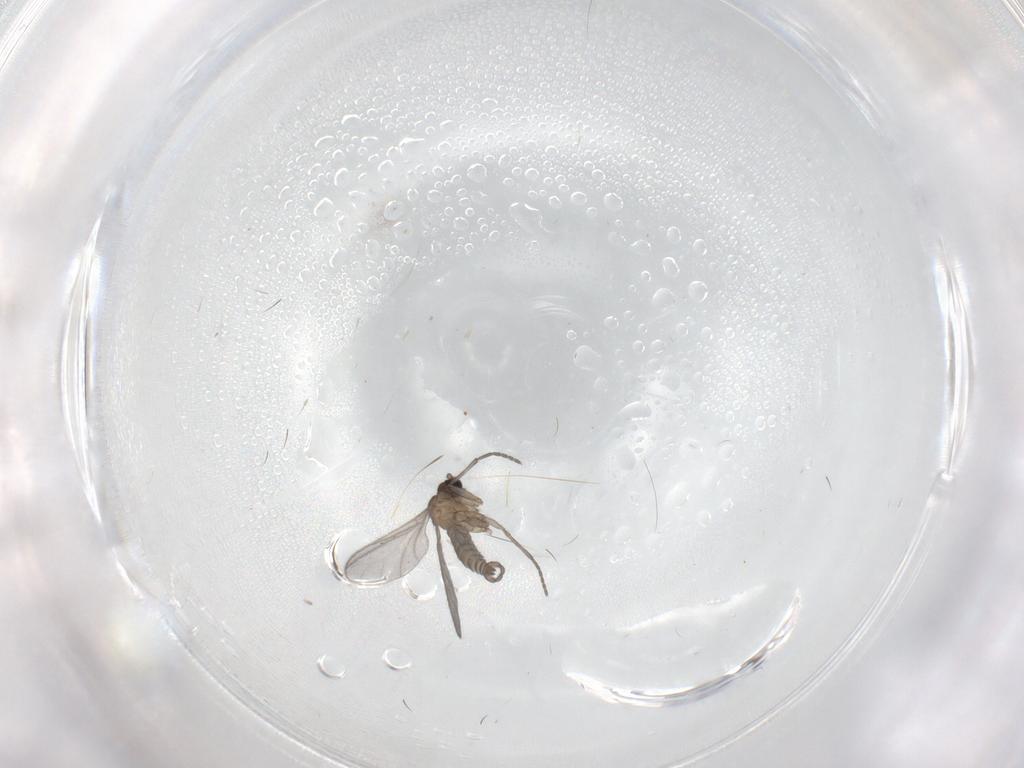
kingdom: Animalia
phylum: Arthropoda
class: Insecta
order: Diptera
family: Sciaridae
